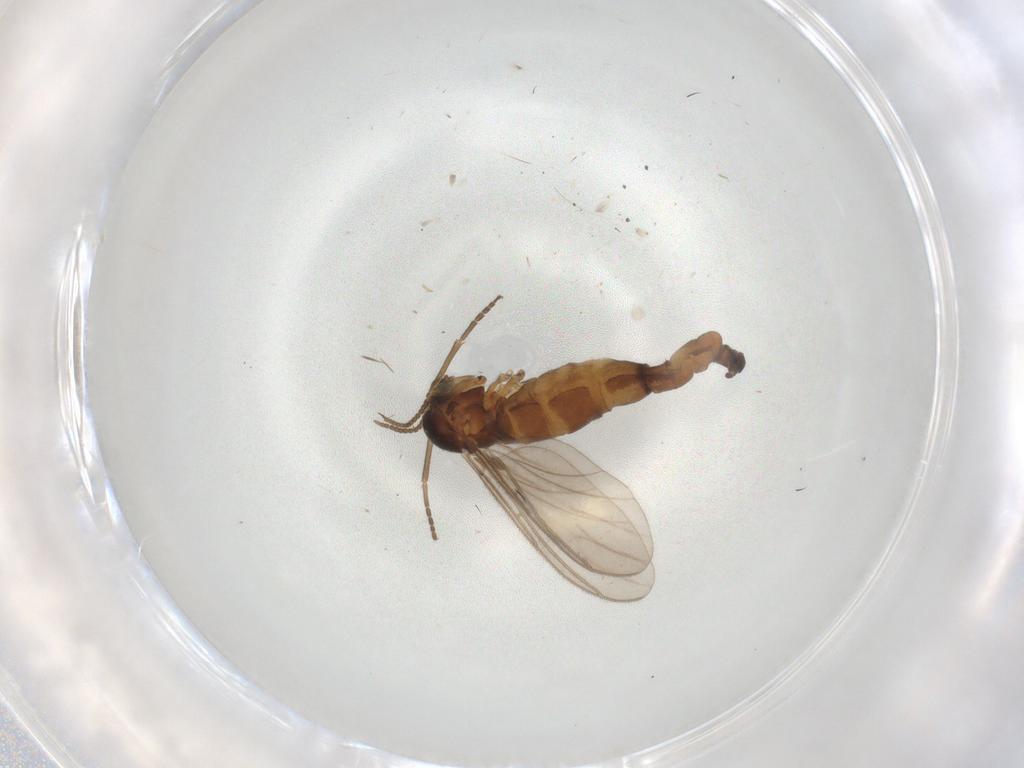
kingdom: Animalia
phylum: Arthropoda
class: Insecta
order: Diptera
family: Sciaridae
